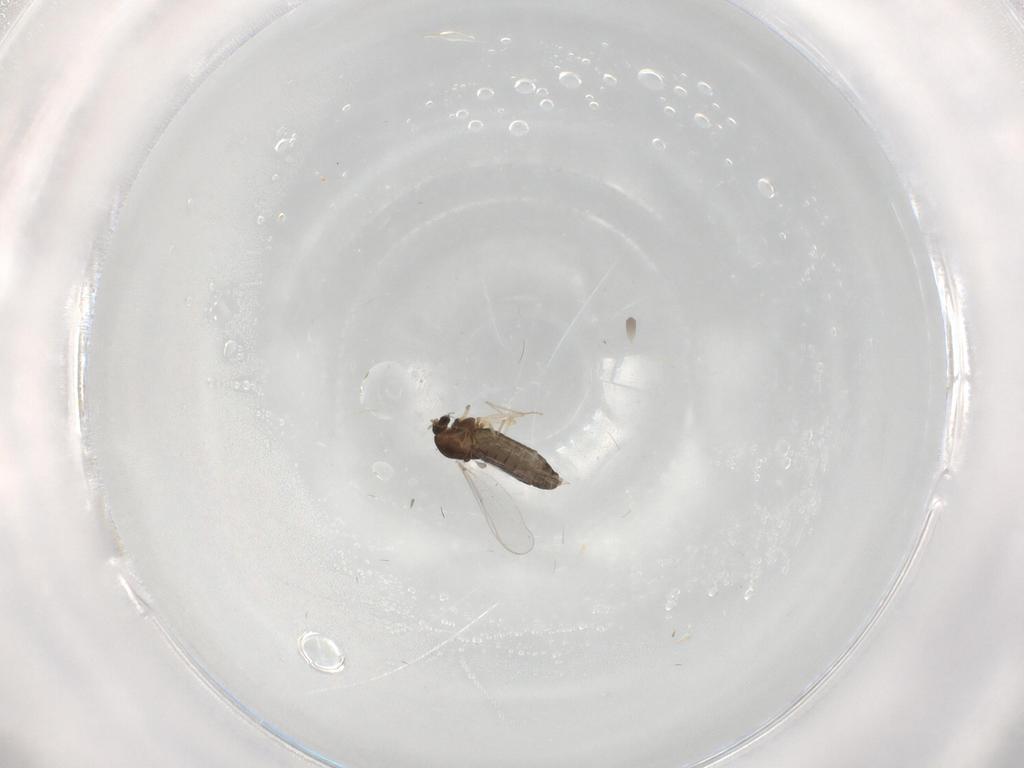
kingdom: Animalia
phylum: Arthropoda
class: Insecta
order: Diptera
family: Chironomidae
